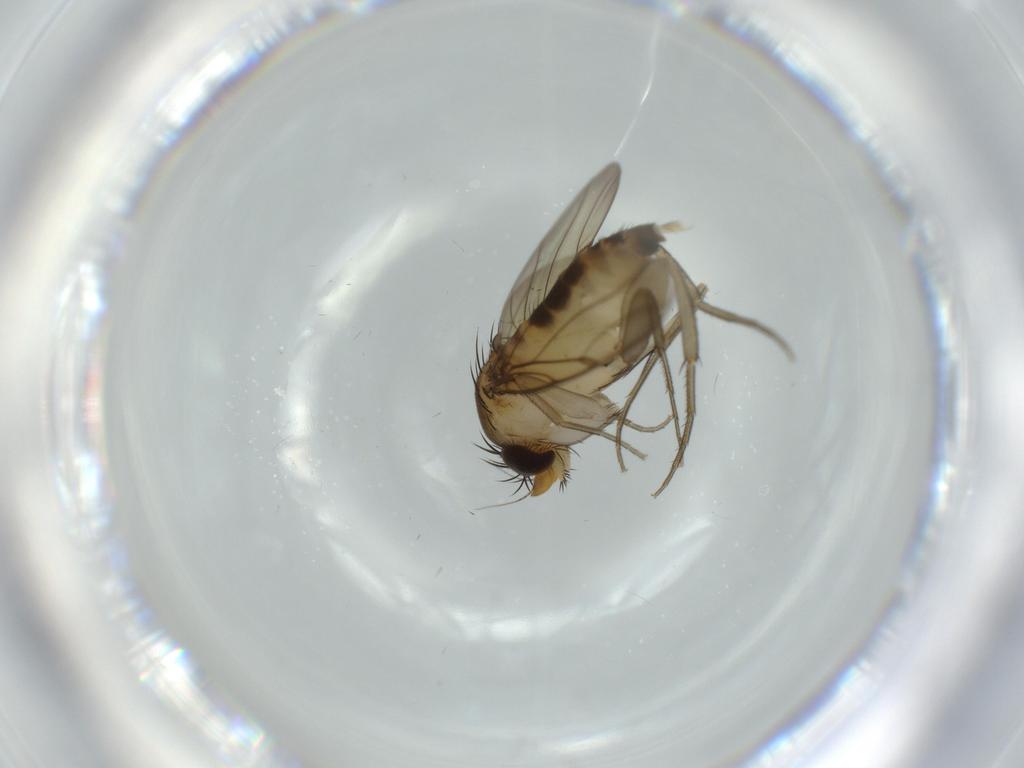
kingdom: Animalia
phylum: Arthropoda
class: Insecta
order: Diptera
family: Phoridae
